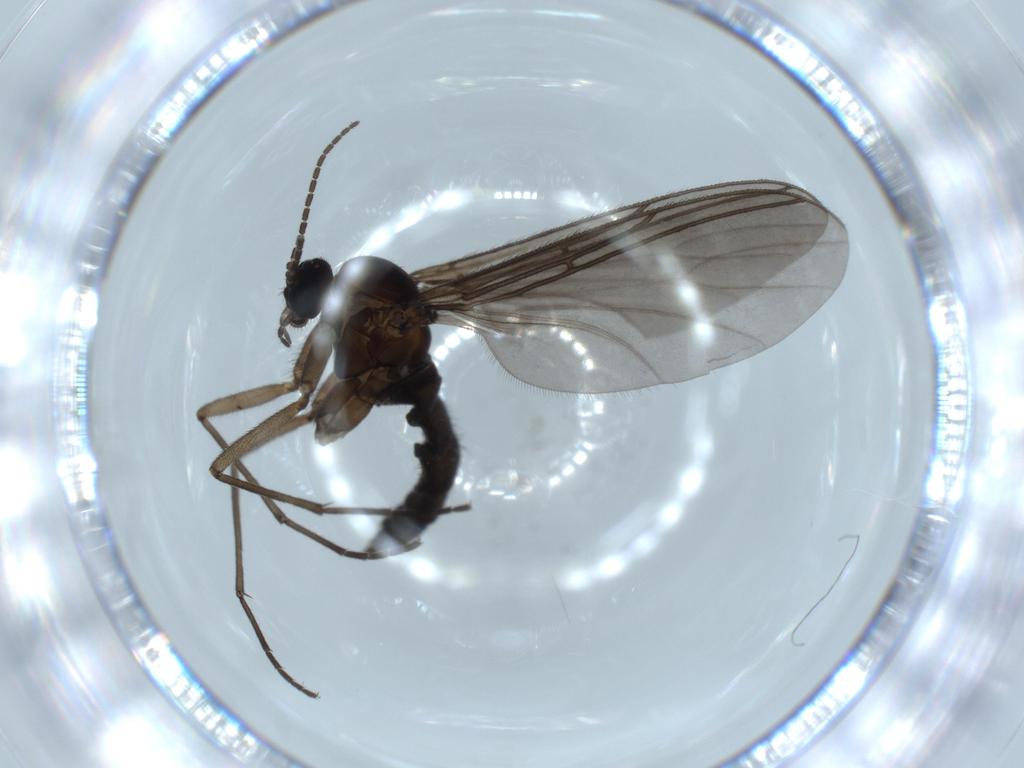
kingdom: Animalia
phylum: Arthropoda
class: Insecta
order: Diptera
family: Sciaridae
